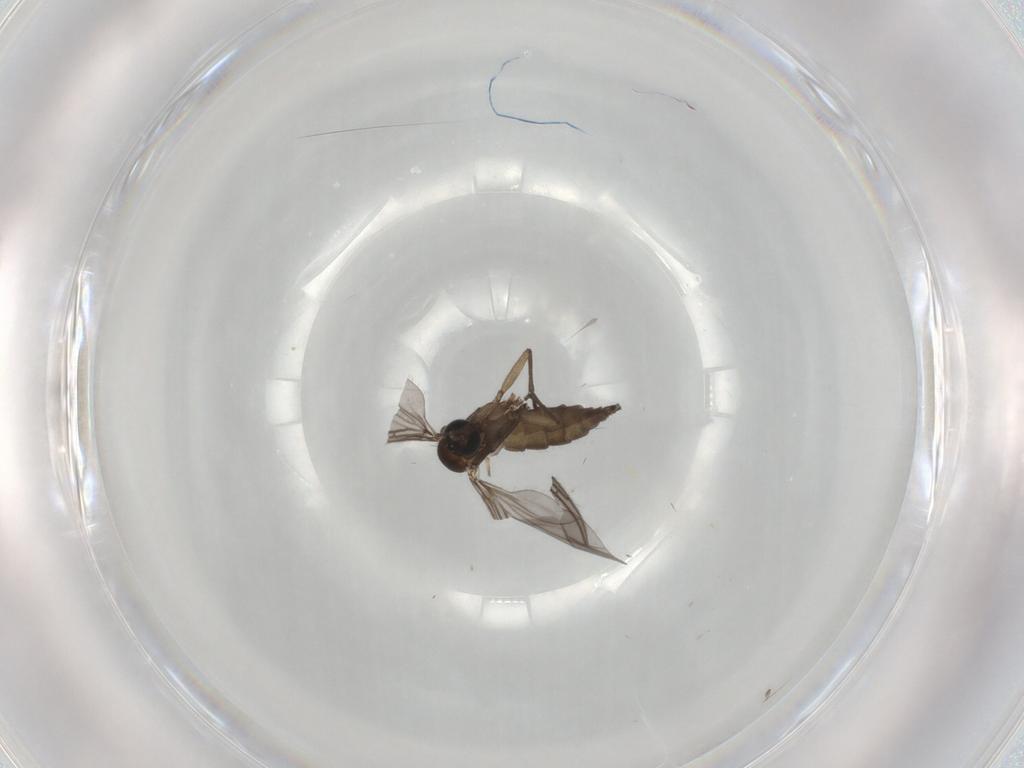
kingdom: Animalia
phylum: Arthropoda
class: Insecta
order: Diptera
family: Sciaridae
